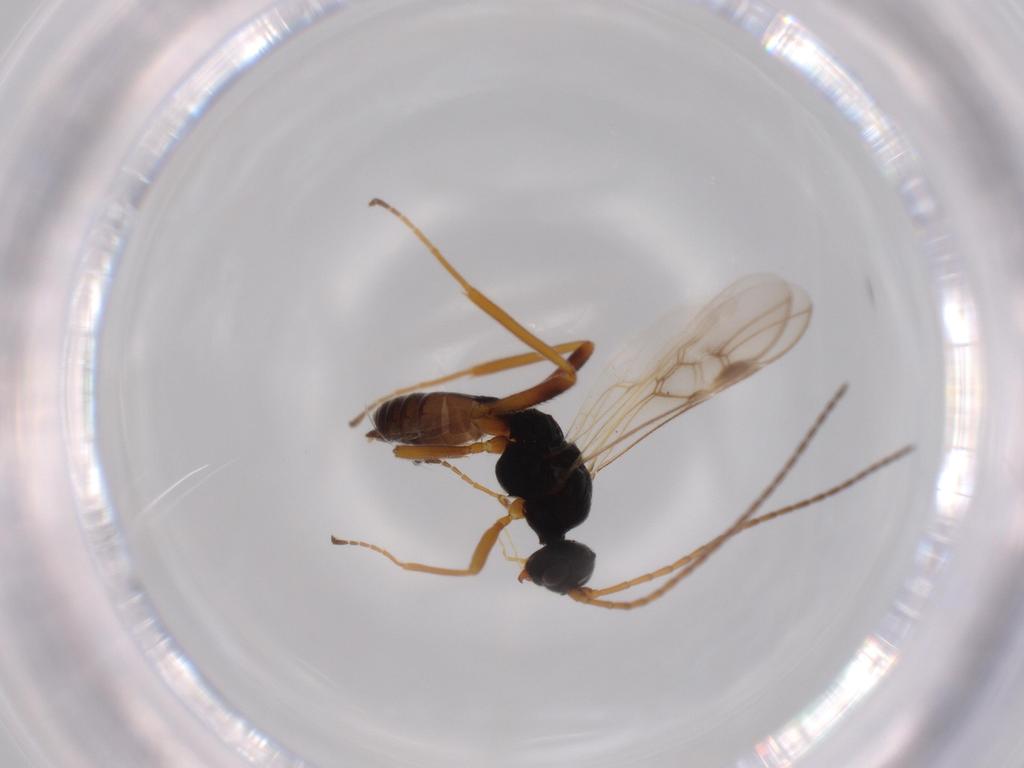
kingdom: Animalia
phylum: Arthropoda
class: Insecta
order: Hymenoptera
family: Braconidae
